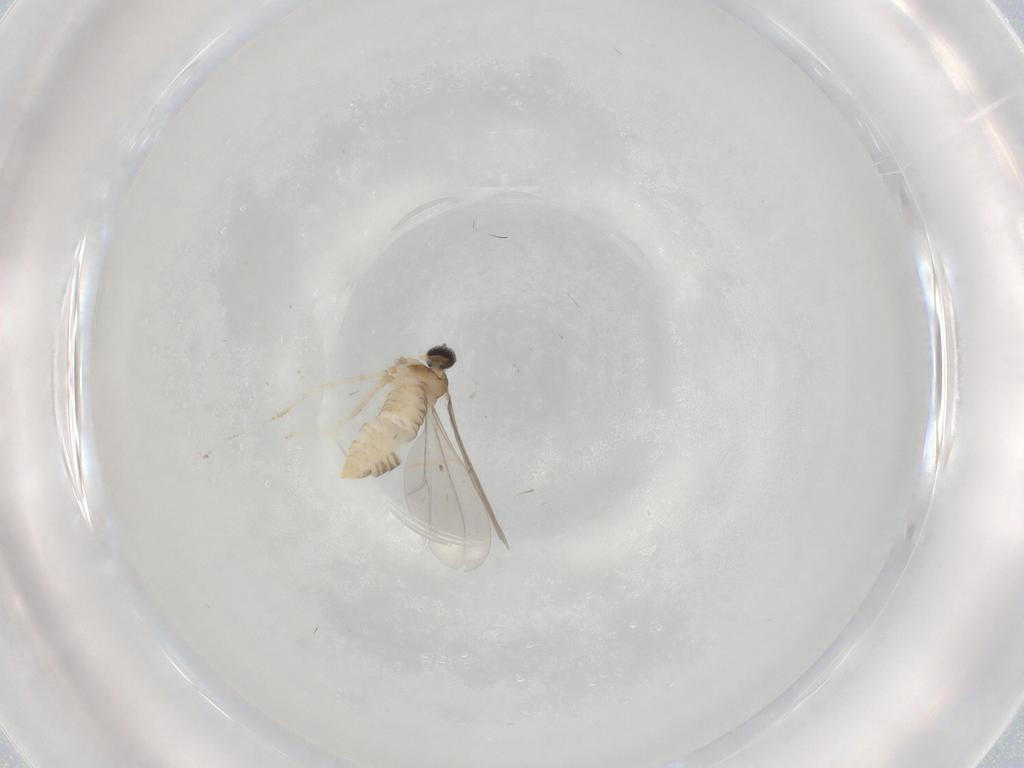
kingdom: Animalia
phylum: Arthropoda
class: Insecta
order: Diptera
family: Cecidomyiidae
